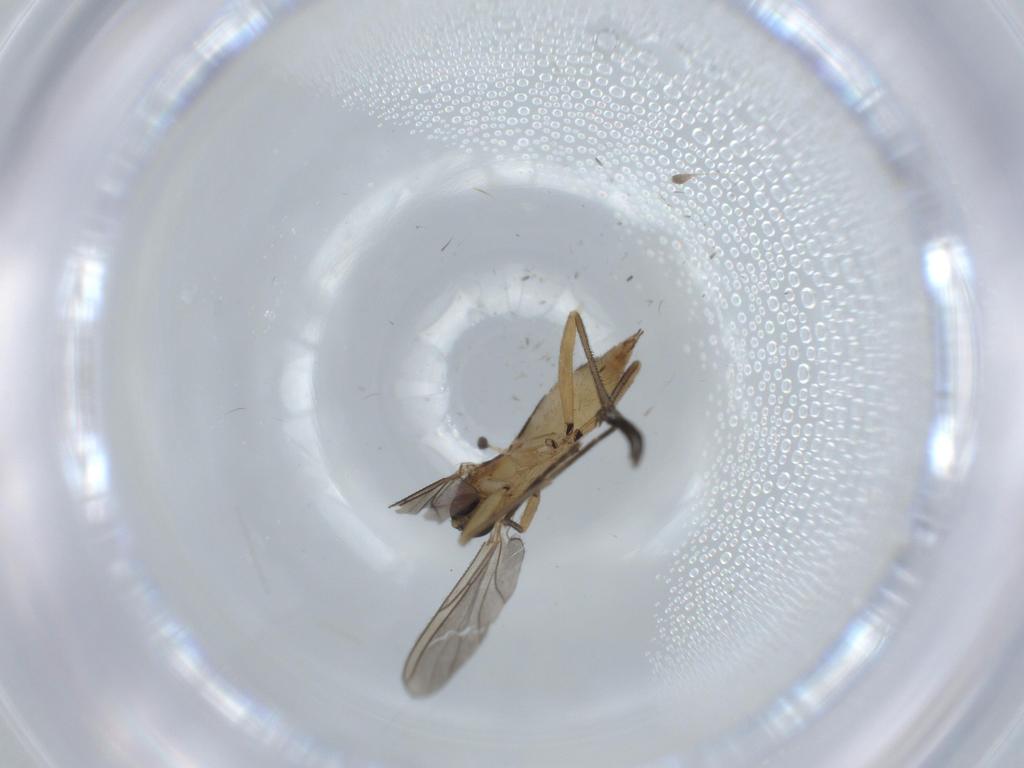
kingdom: Animalia
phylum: Arthropoda
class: Insecta
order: Diptera
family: Sciaridae
